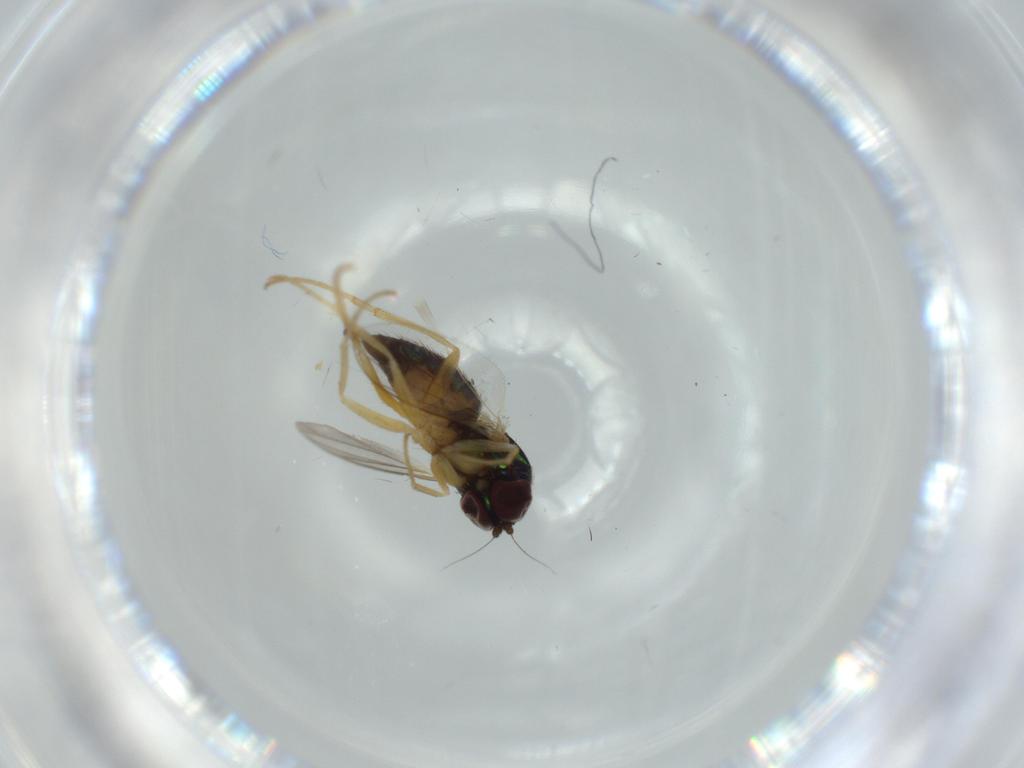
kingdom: Animalia
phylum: Arthropoda
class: Insecta
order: Diptera
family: Dolichopodidae
